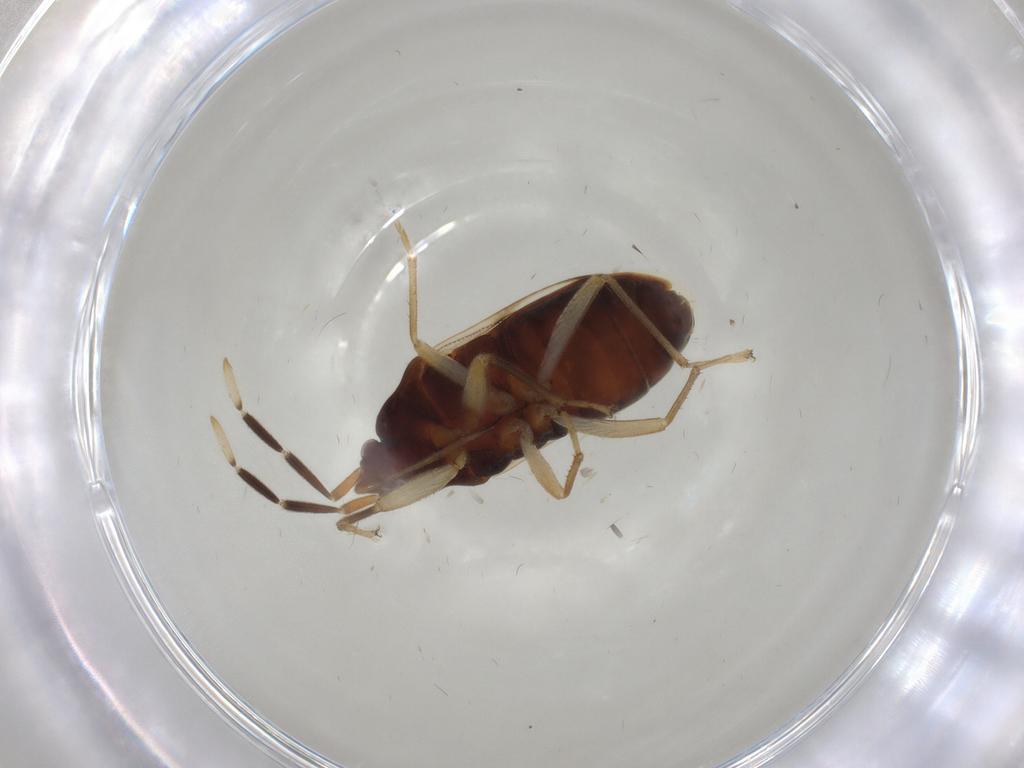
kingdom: Animalia
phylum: Arthropoda
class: Insecta
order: Hemiptera
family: Rhyparochromidae
